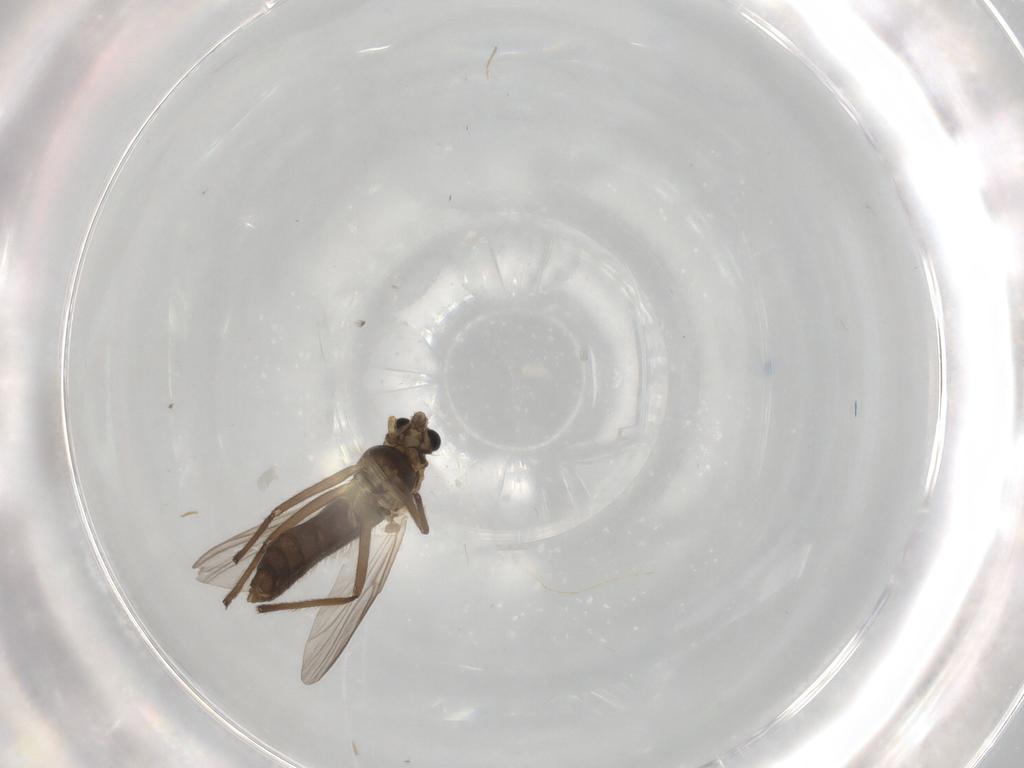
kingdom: Animalia
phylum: Arthropoda
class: Insecta
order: Diptera
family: Chironomidae
